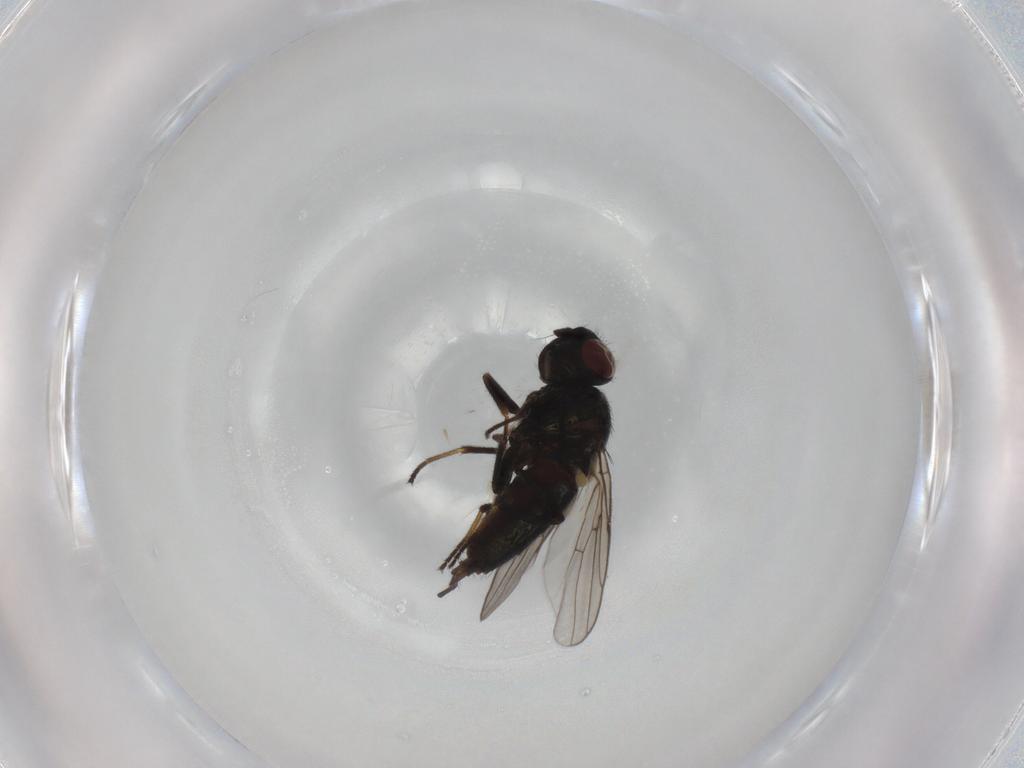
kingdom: Animalia
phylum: Arthropoda
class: Insecta
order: Diptera
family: Chloropidae
